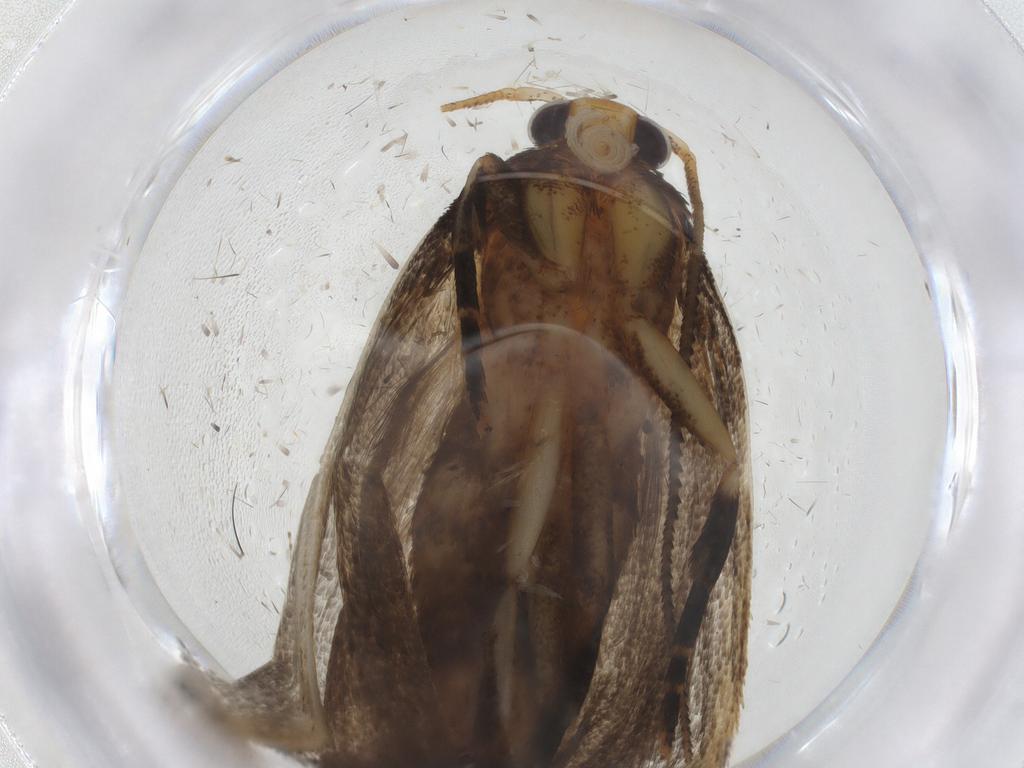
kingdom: Animalia
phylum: Arthropoda
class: Insecta
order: Lepidoptera
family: Oecophoridae
